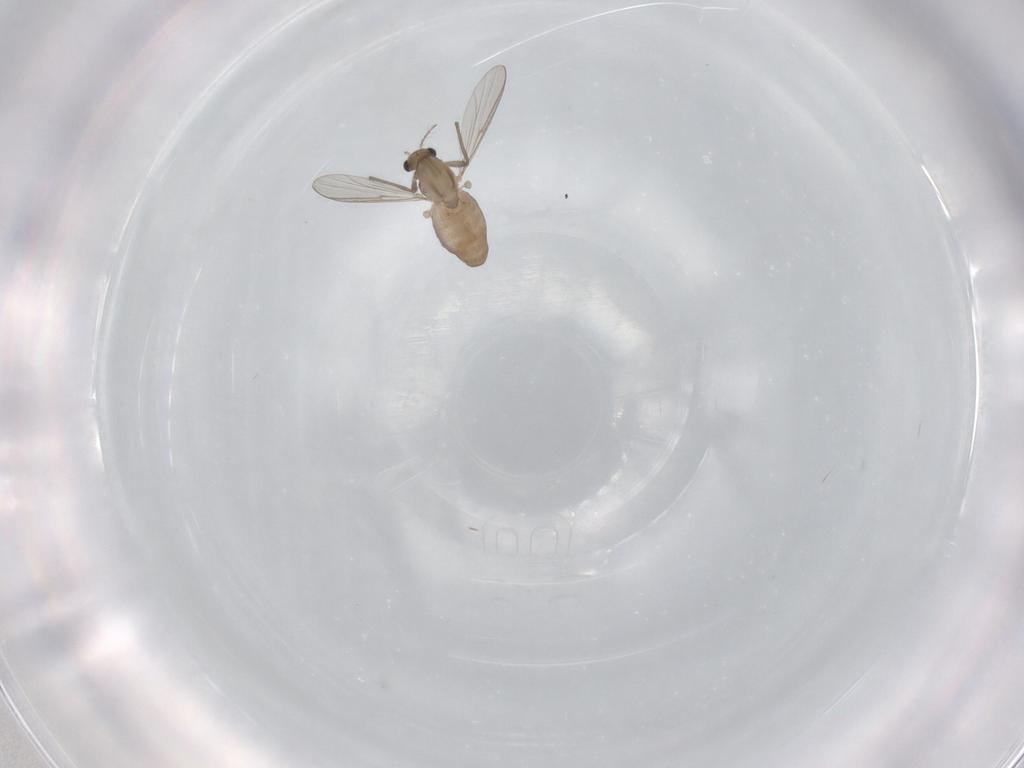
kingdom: Animalia
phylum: Arthropoda
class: Insecta
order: Diptera
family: Chironomidae
